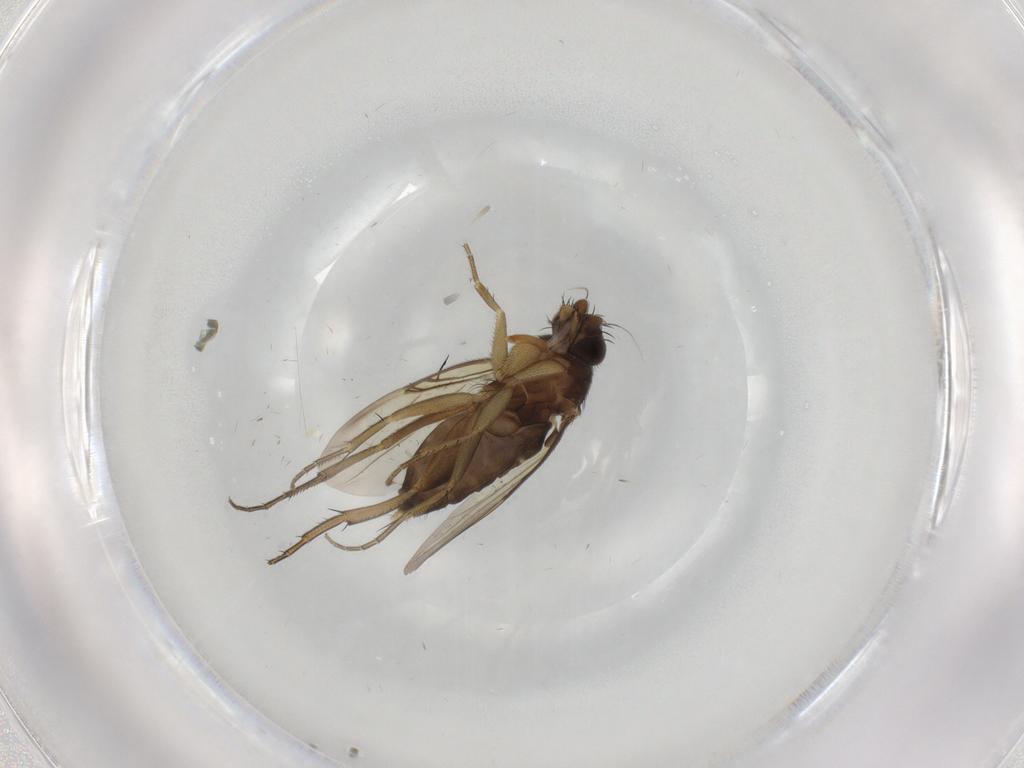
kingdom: Animalia
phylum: Arthropoda
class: Insecta
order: Diptera
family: Phoridae
